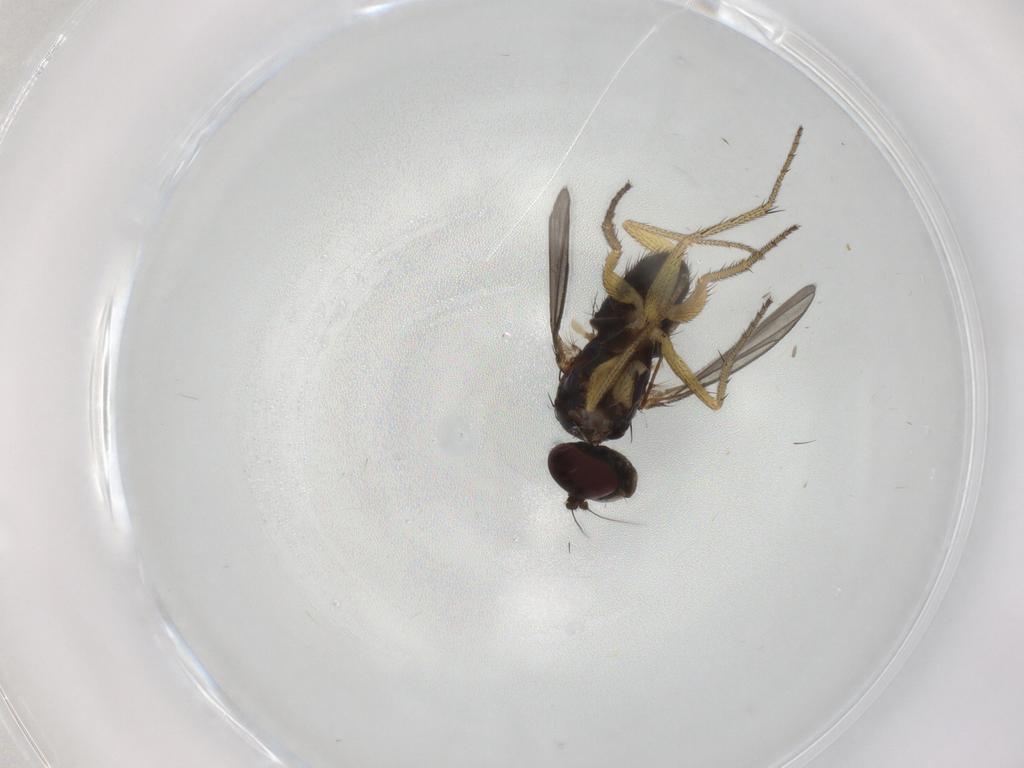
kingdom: Animalia
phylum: Arthropoda
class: Insecta
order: Diptera
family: Dolichopodidae
